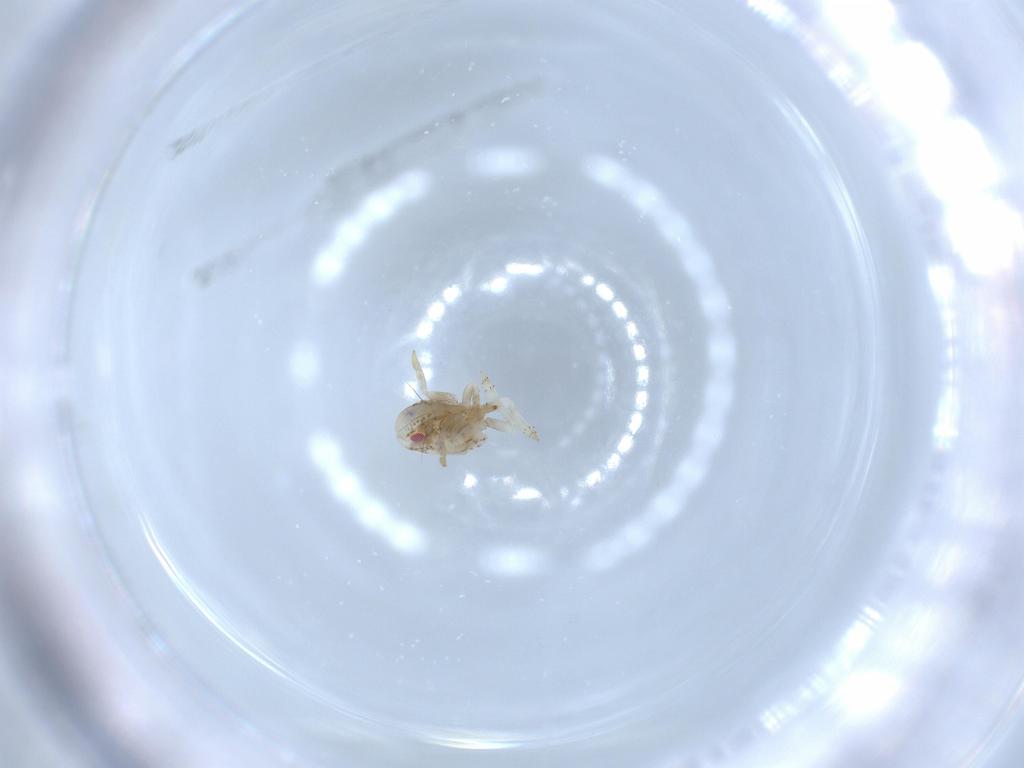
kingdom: Animalia
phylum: Arthropoda
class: Insecta
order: Hemiptera
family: Acanaloniidae
